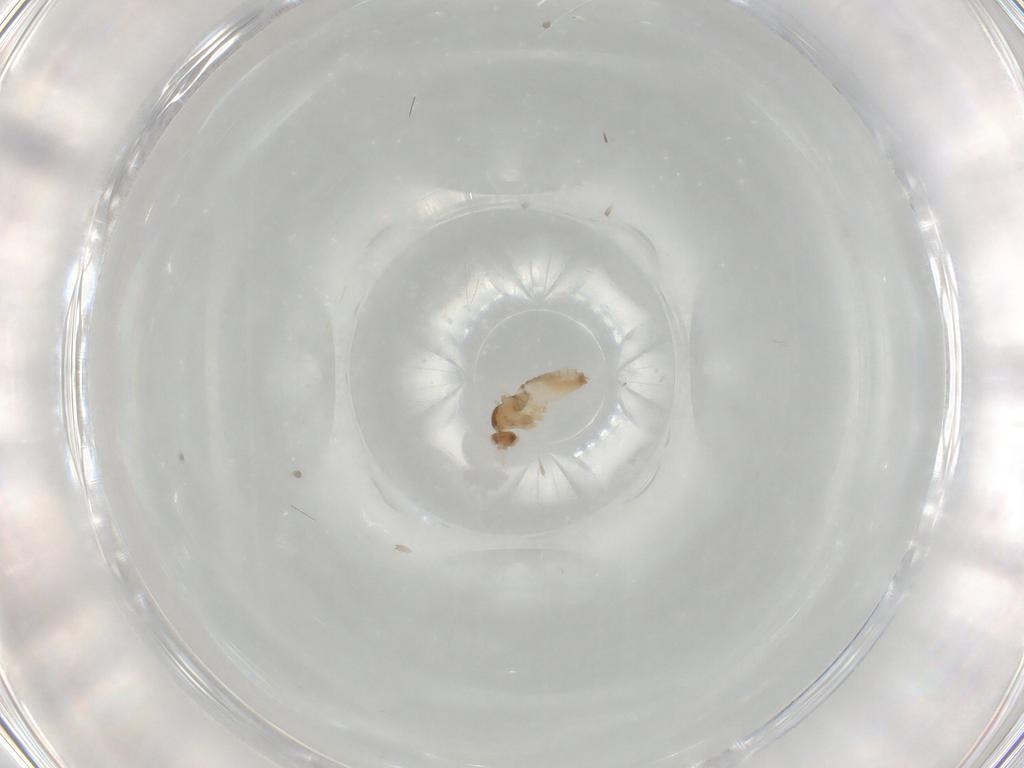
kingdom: Animalia
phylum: Arthropoda
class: Insecta
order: Diptera
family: Cecidomyiidae
